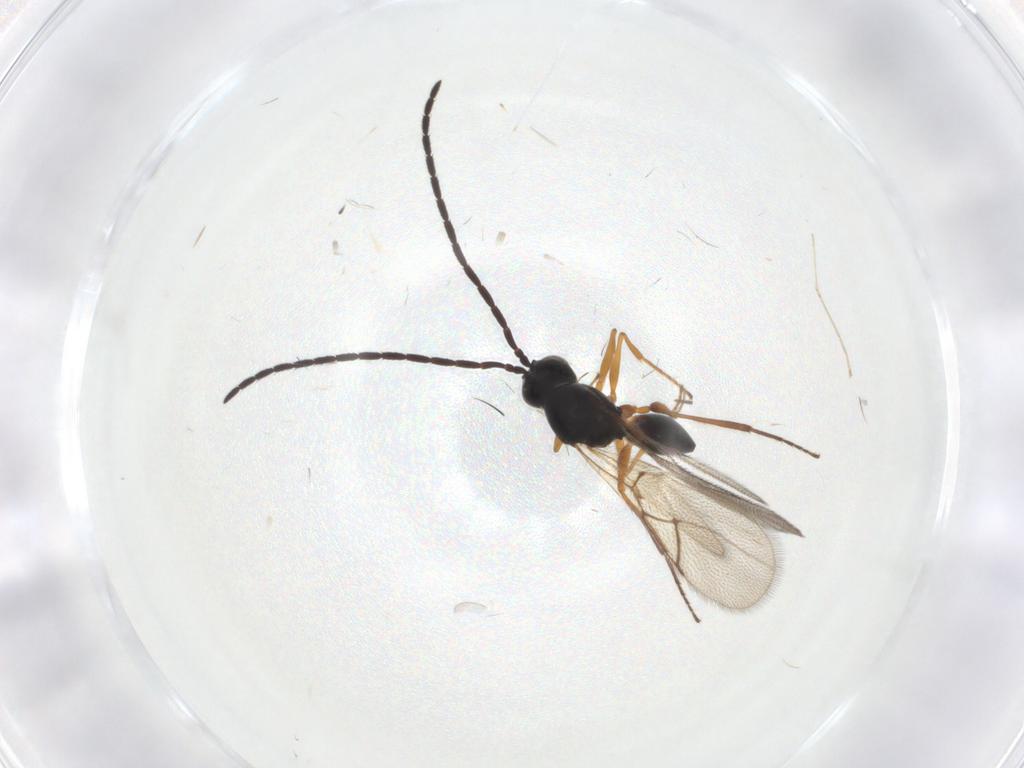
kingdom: Animalia
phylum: Arthropoda
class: Insecta
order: Hymenoptera
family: Figitidae
